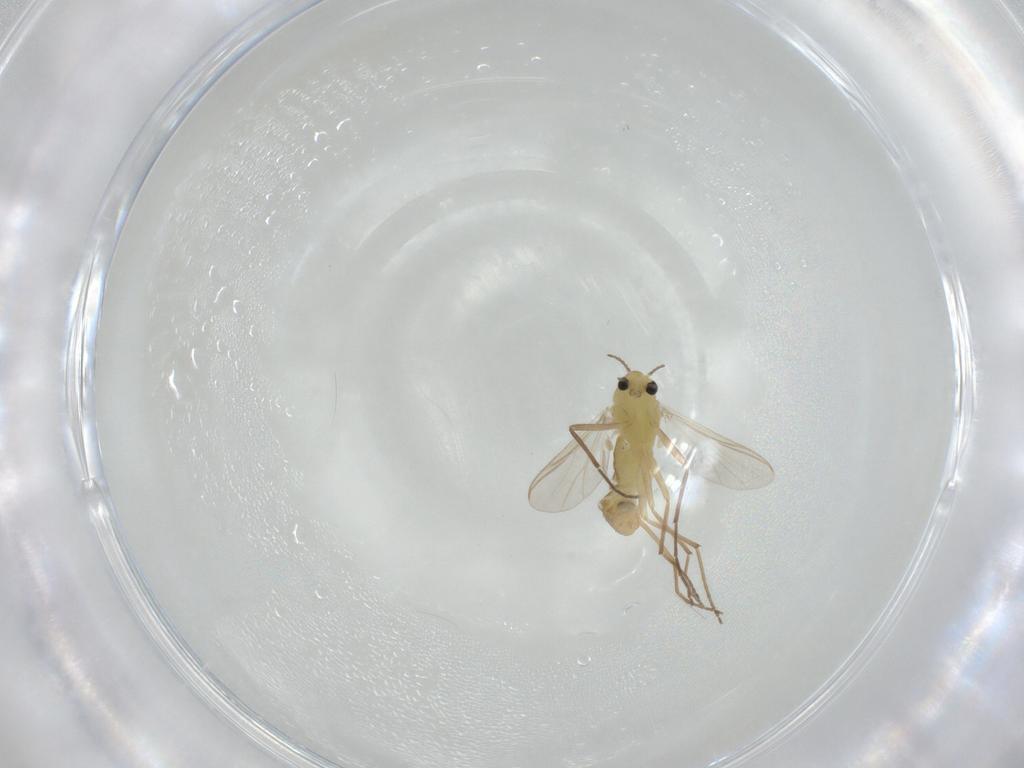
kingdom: Animalia
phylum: Arthropoda
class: Insecta
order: Diptera
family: Chironomidae
